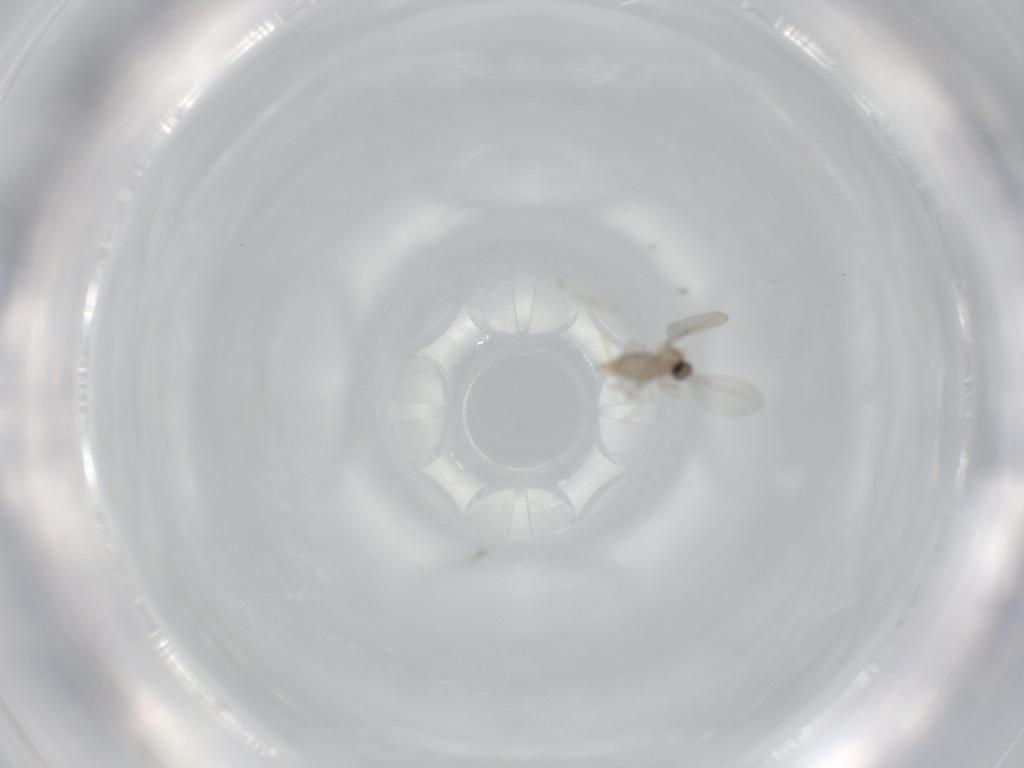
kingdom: Animalia
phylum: Arthropoda
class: Insecta
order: Diptera
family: Cecidomyiidae
